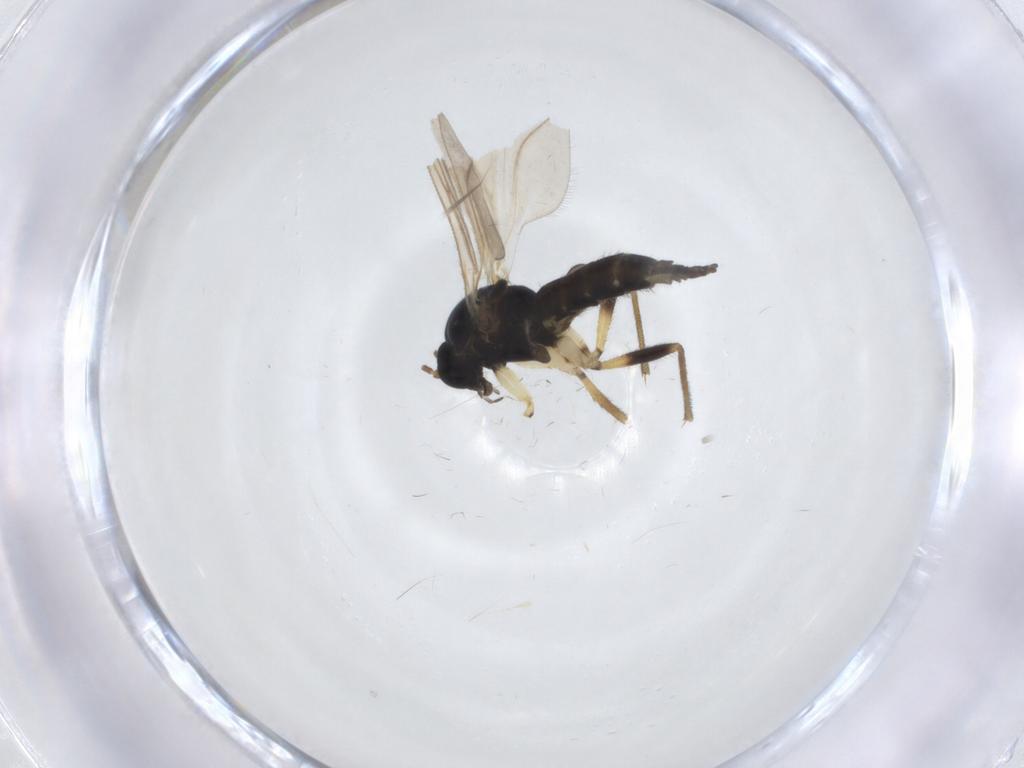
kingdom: Animalia
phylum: Arthropoda
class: Insecta
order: Diptera
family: Sciaridae
